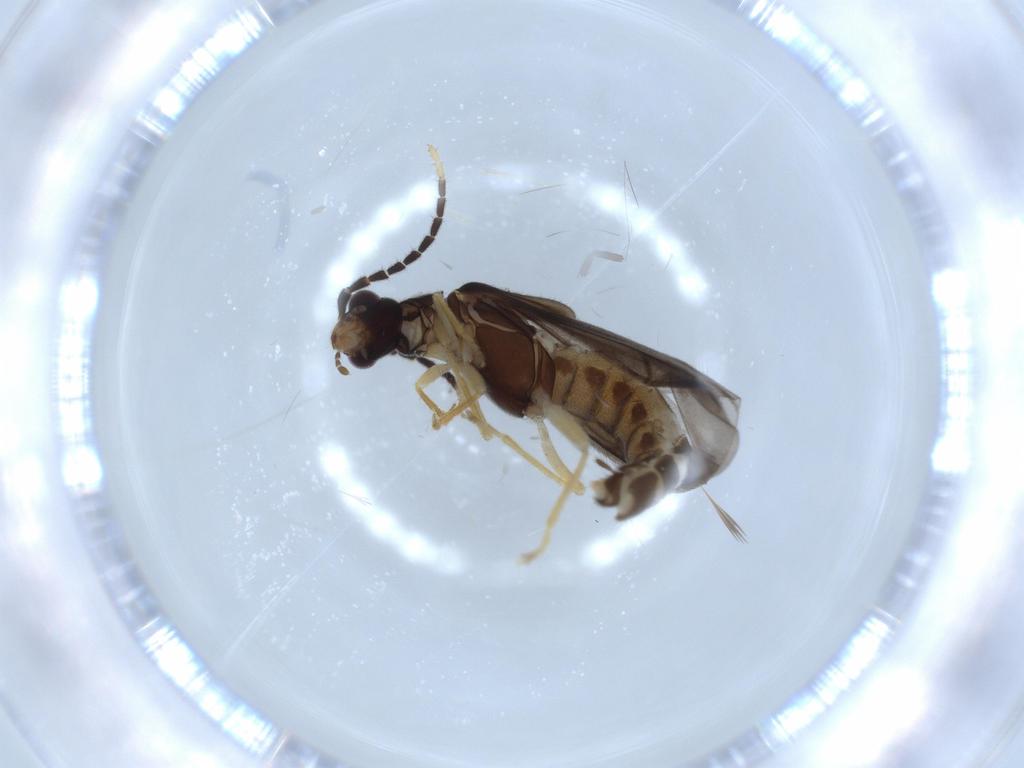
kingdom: Animalia
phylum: Arthropoda
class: Insecta
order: Coleoptera
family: Cantharidae
